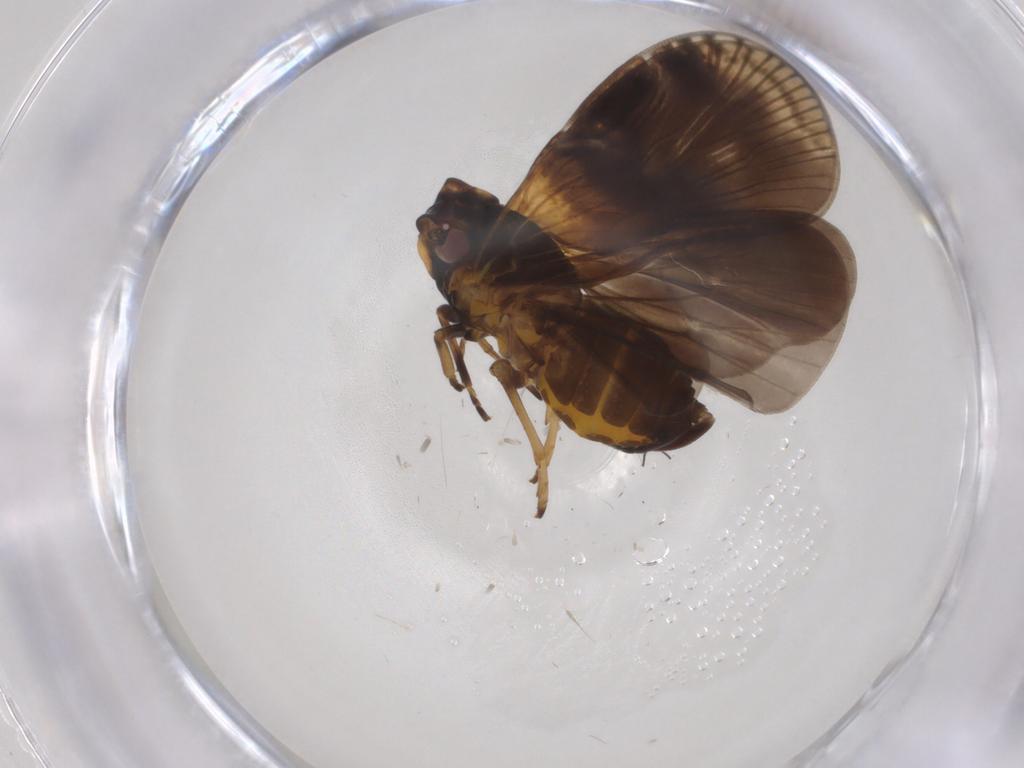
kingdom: Animalia
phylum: Arthropoda
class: Insecta
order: Hemiptera
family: Cixiidae
